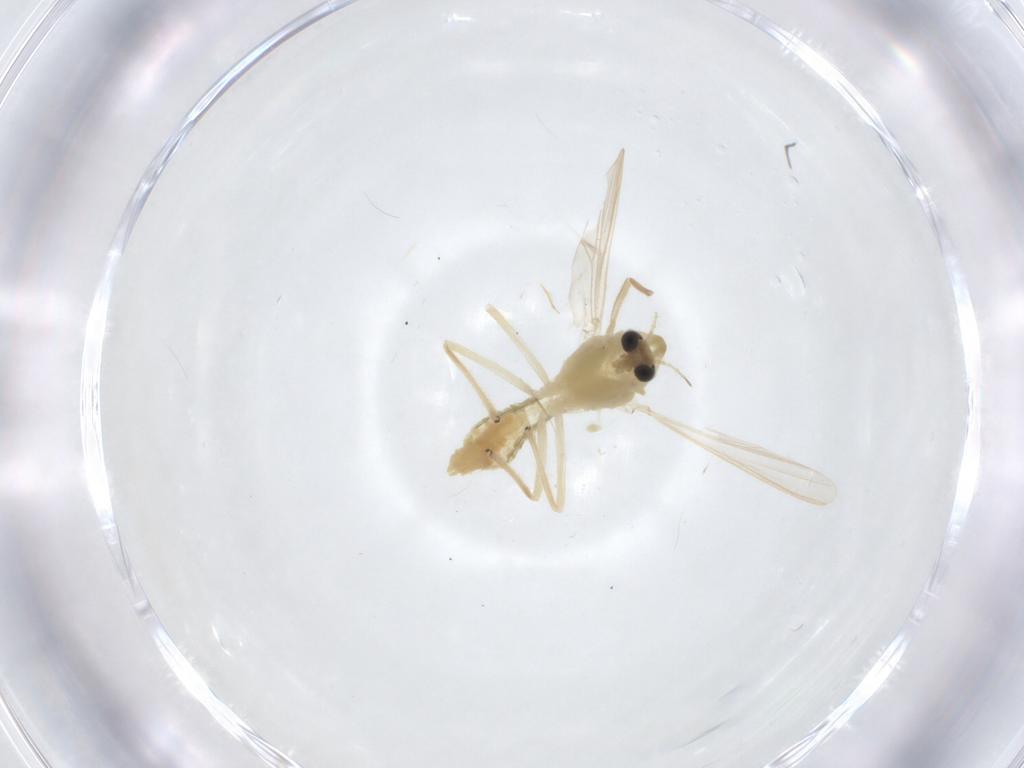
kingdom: Animalia
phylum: Arthropoda
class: Insecta
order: Diptera
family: Chironomidae
